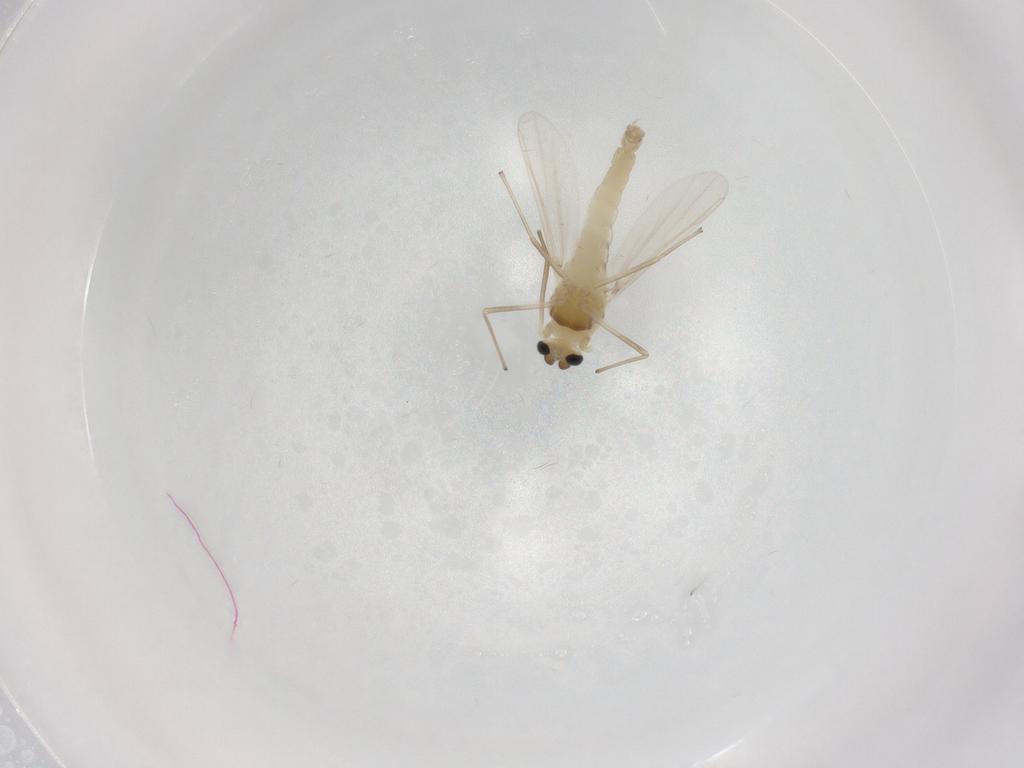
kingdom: Animalia
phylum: Arthropoda
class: Insecta
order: Diptera
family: Chironomidae
